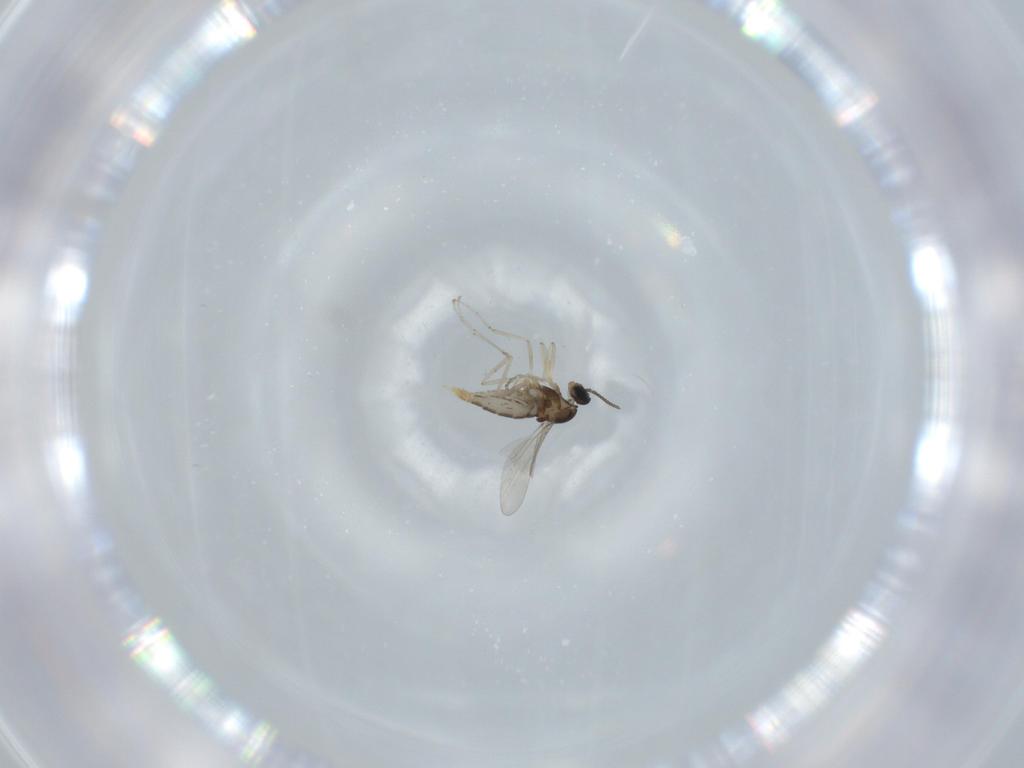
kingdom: Animalia
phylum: Arthropoda
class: Insecta
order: Diptera
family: Cecidomyiidae
